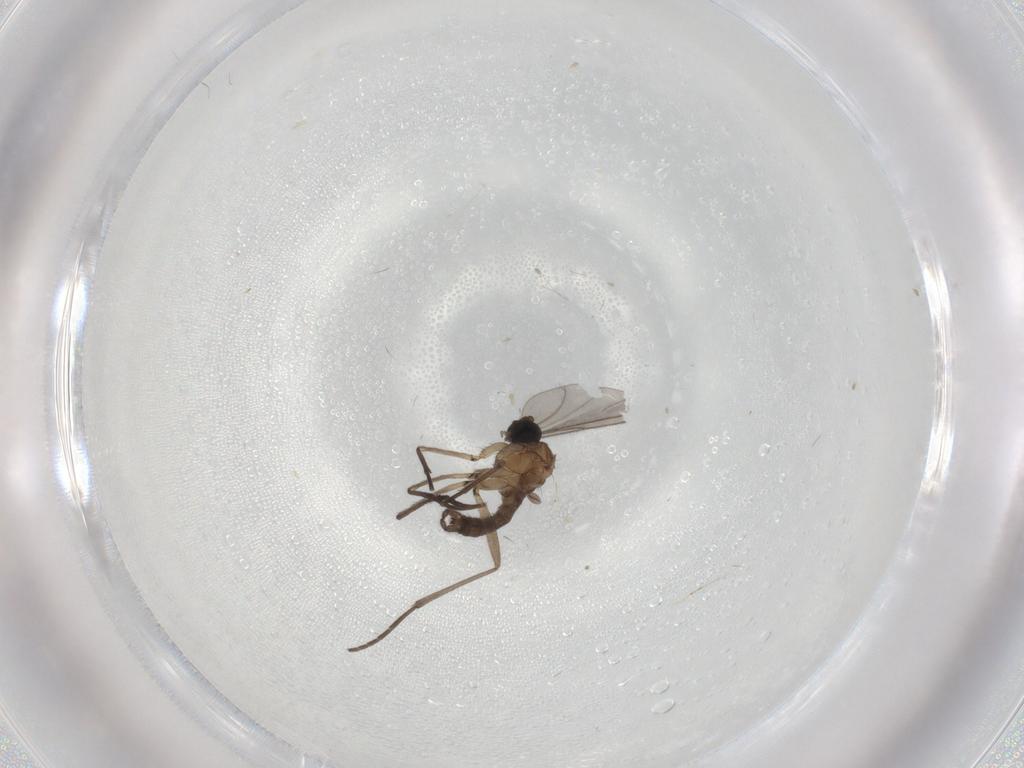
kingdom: Animalia
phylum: Arthropoda
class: Insecta
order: Diptera
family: Sciaridae
